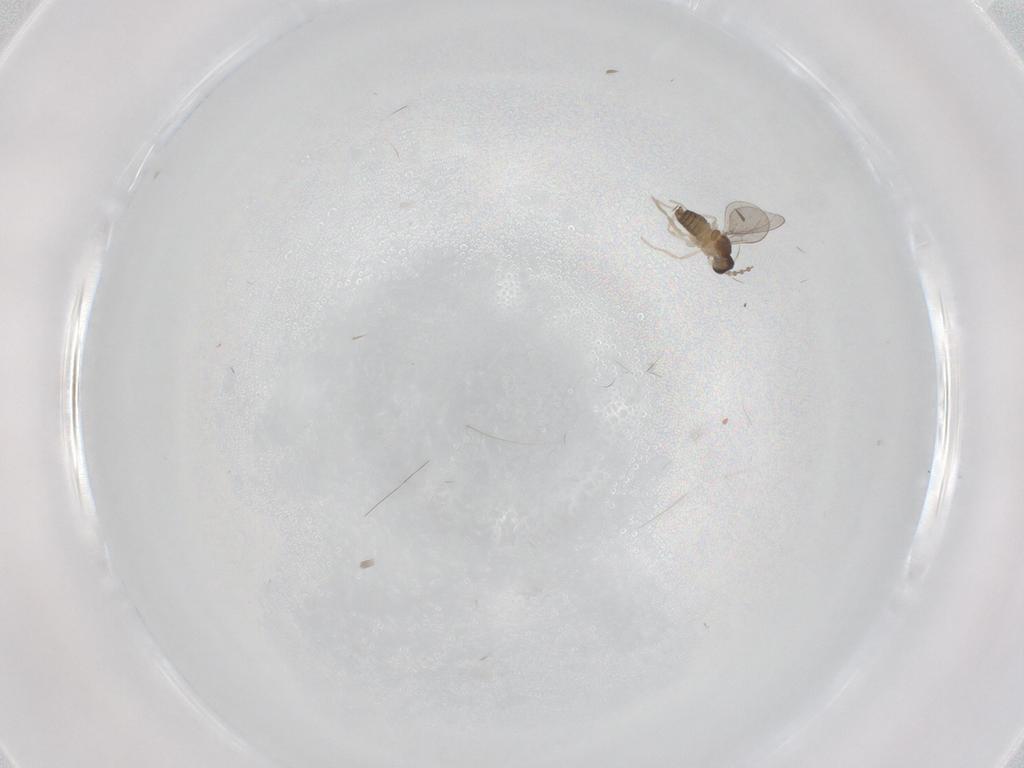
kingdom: Animalia
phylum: Arthropoda
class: Insecta
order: Diptera
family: Cecidomyiidae
